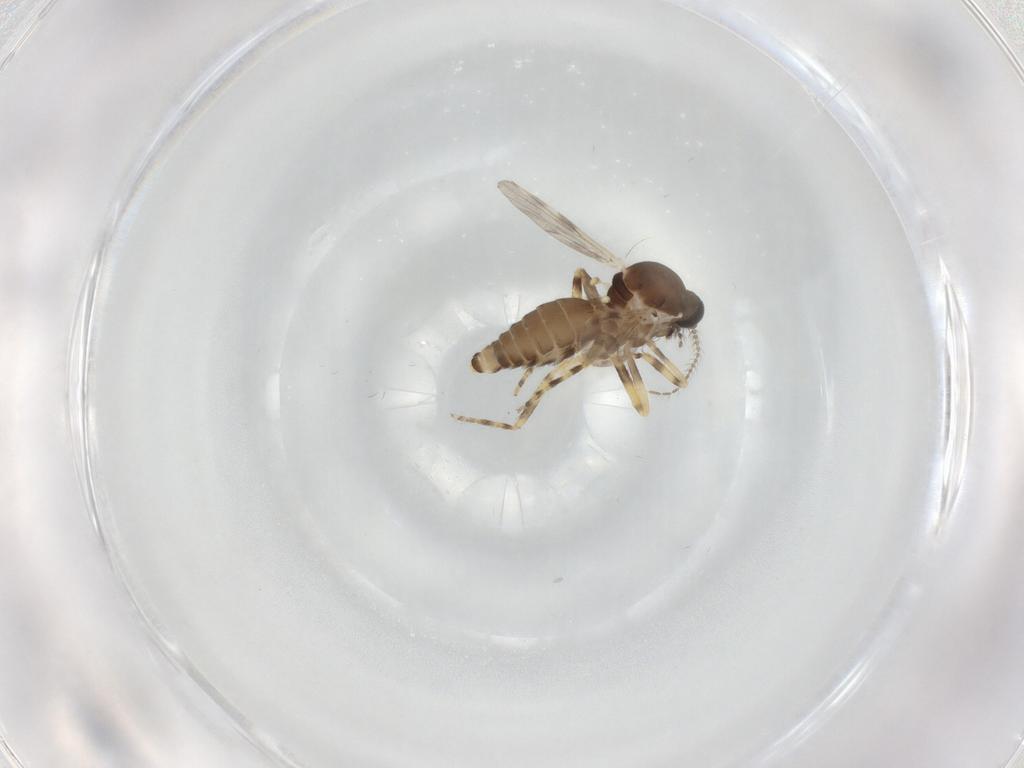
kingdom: Animalia
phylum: Arthropoda
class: Insecta
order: Diptera
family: Ceratopogonidae
